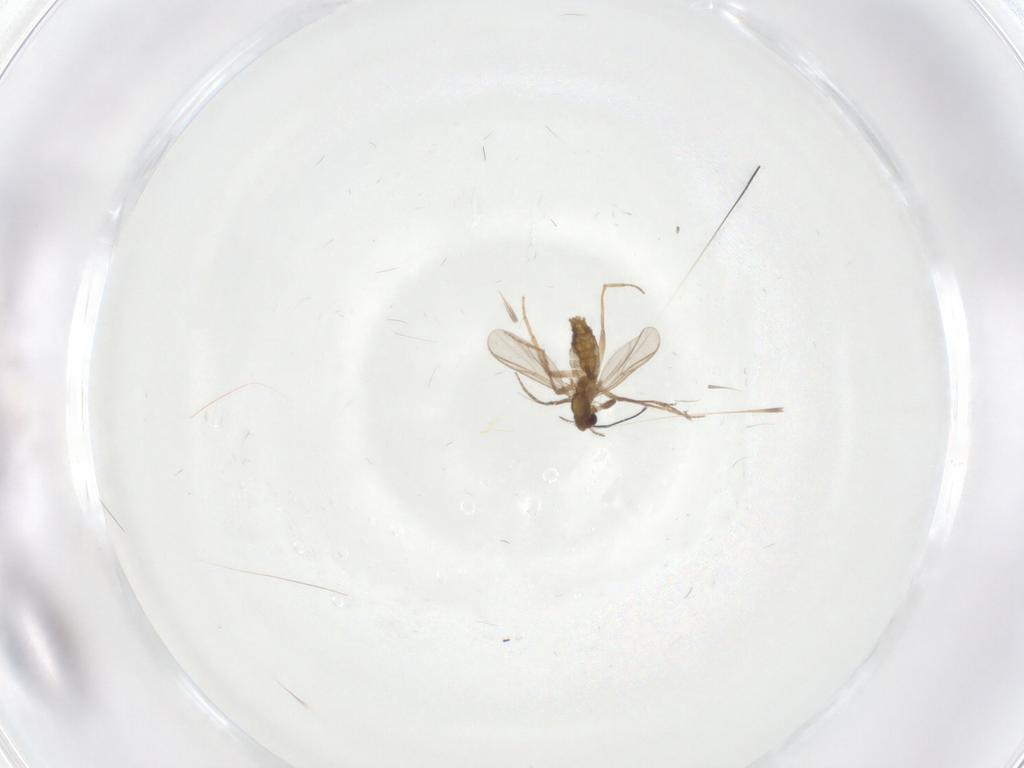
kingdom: Animalia
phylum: Arthropoda
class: Insecta
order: Diptera
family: Chironomidae
